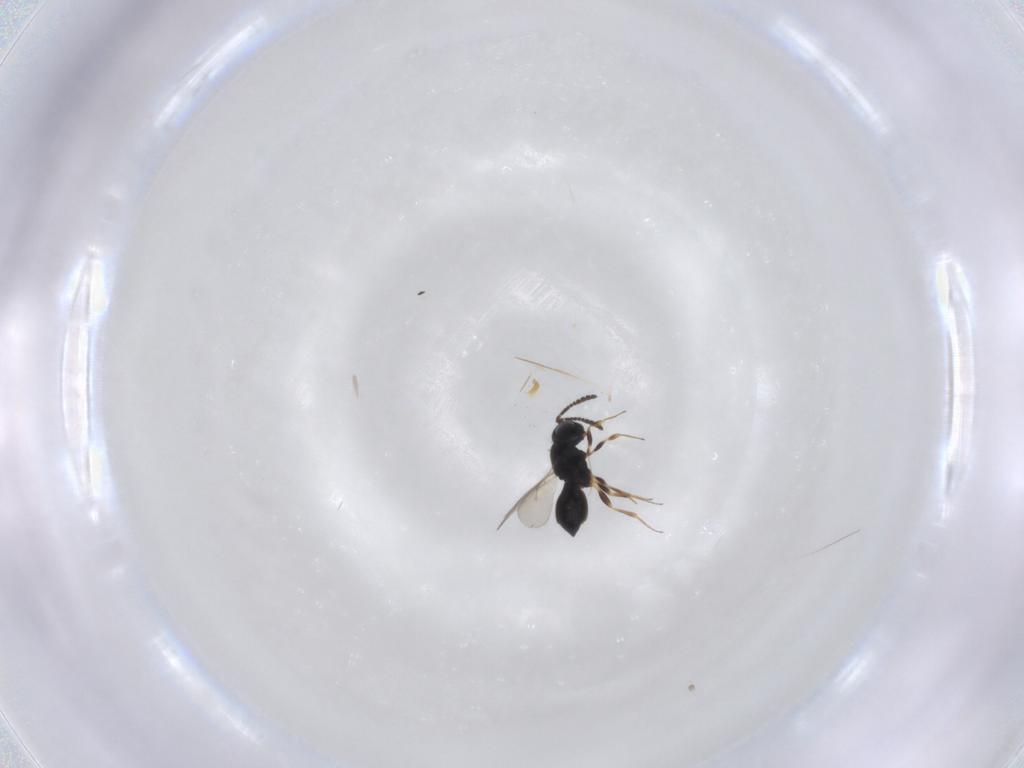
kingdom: Animalia
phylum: Arthropoda
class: Insecta
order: Hymenoptera
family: Scelionidae
